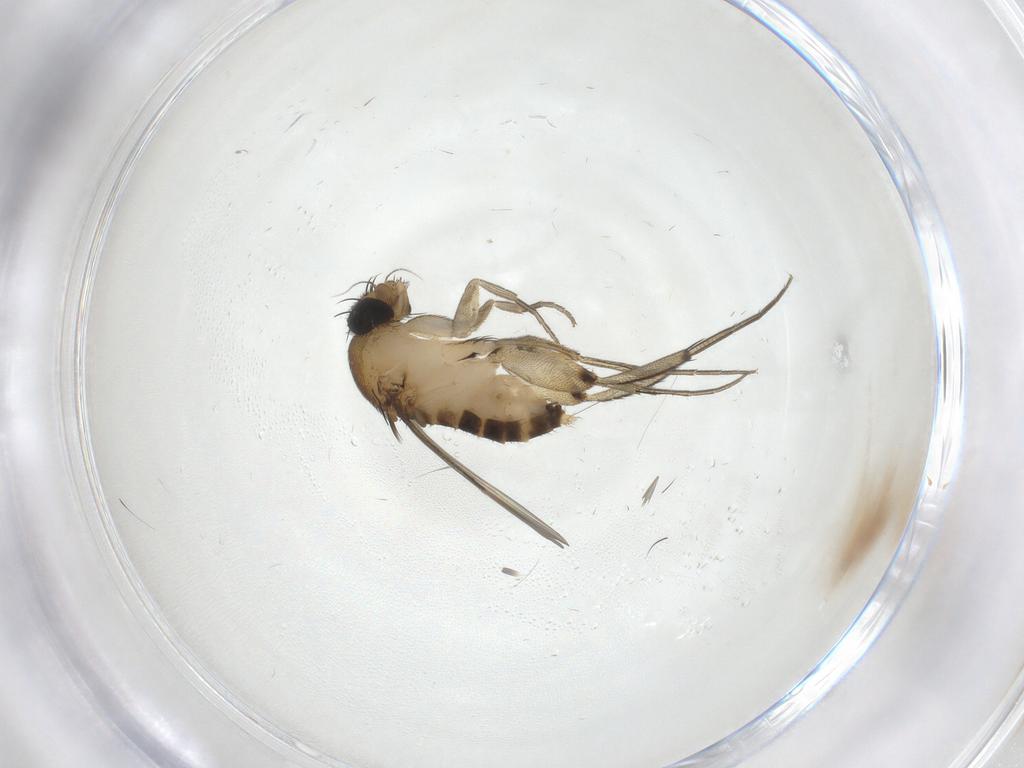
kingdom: Animalia
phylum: Arthropoda
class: Insecta
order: Diptera
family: Phoridae
